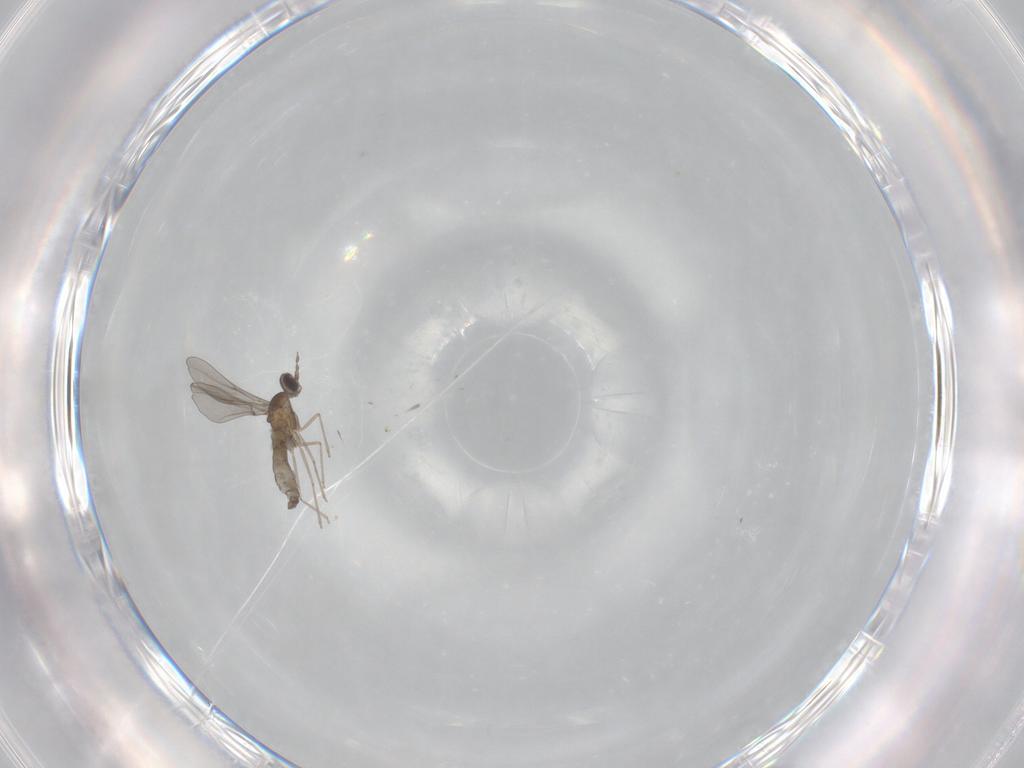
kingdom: Animalia
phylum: Arthropoda
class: Insecta
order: Diptera
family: Cecidomyiidae
